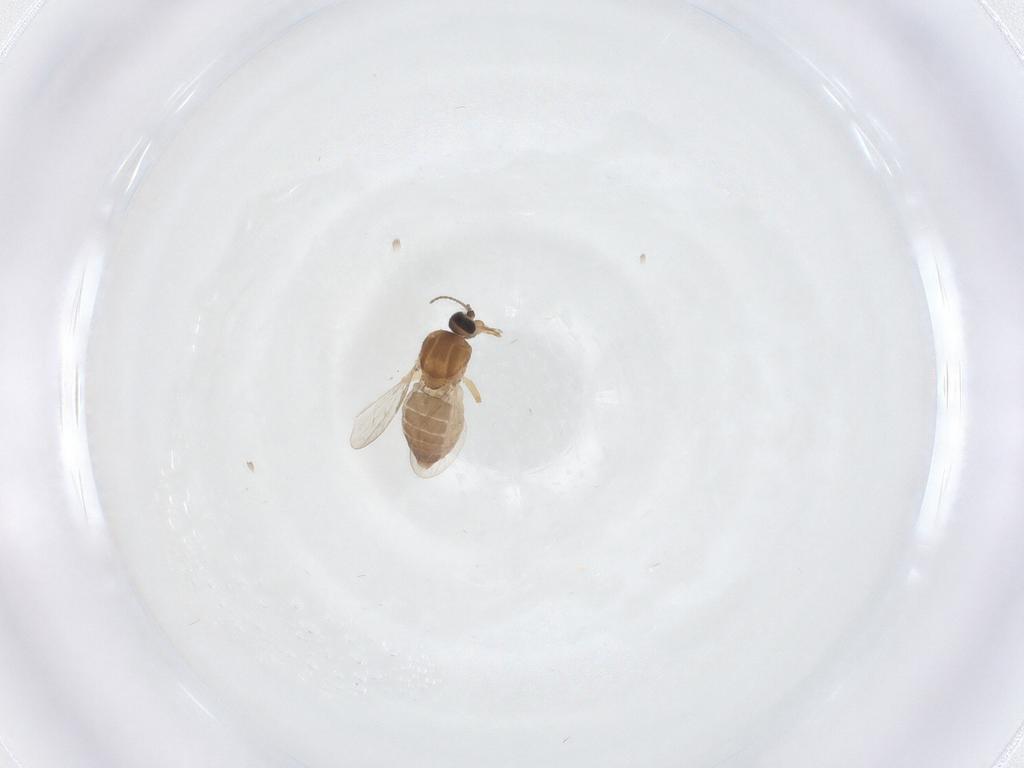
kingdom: Animalia
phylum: Arthropoda
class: Insecta
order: Diptera
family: Ceratopogonidae
